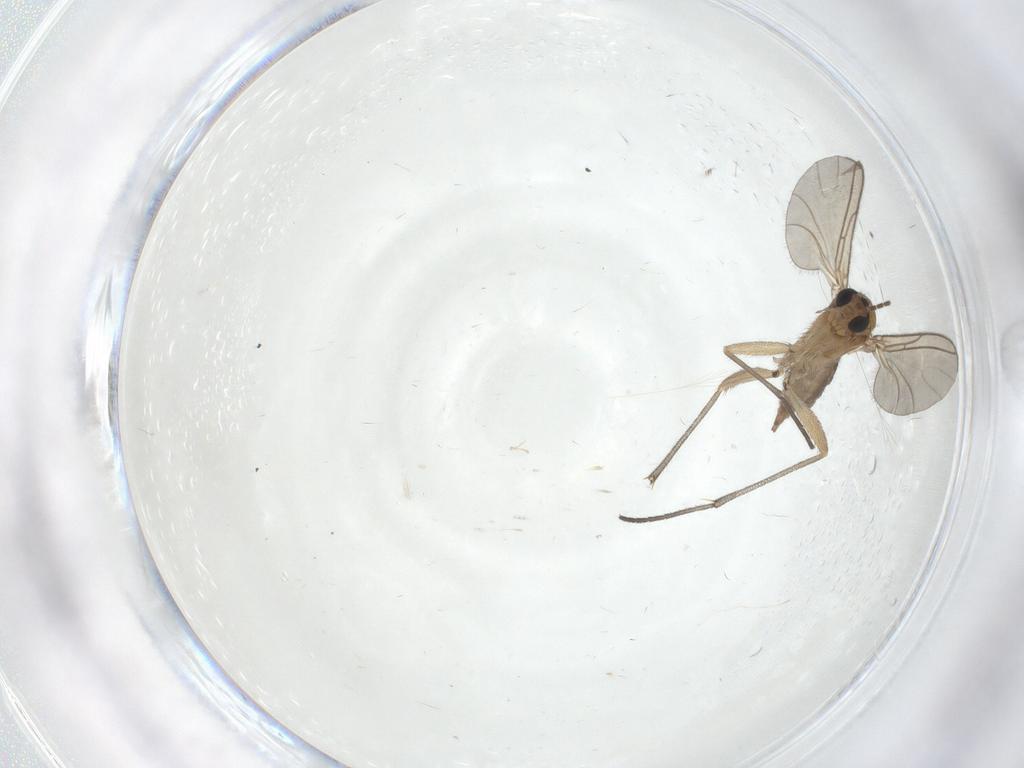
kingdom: Animalia
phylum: Arthropoda
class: Insecta
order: Diptera
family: Sciaridae
